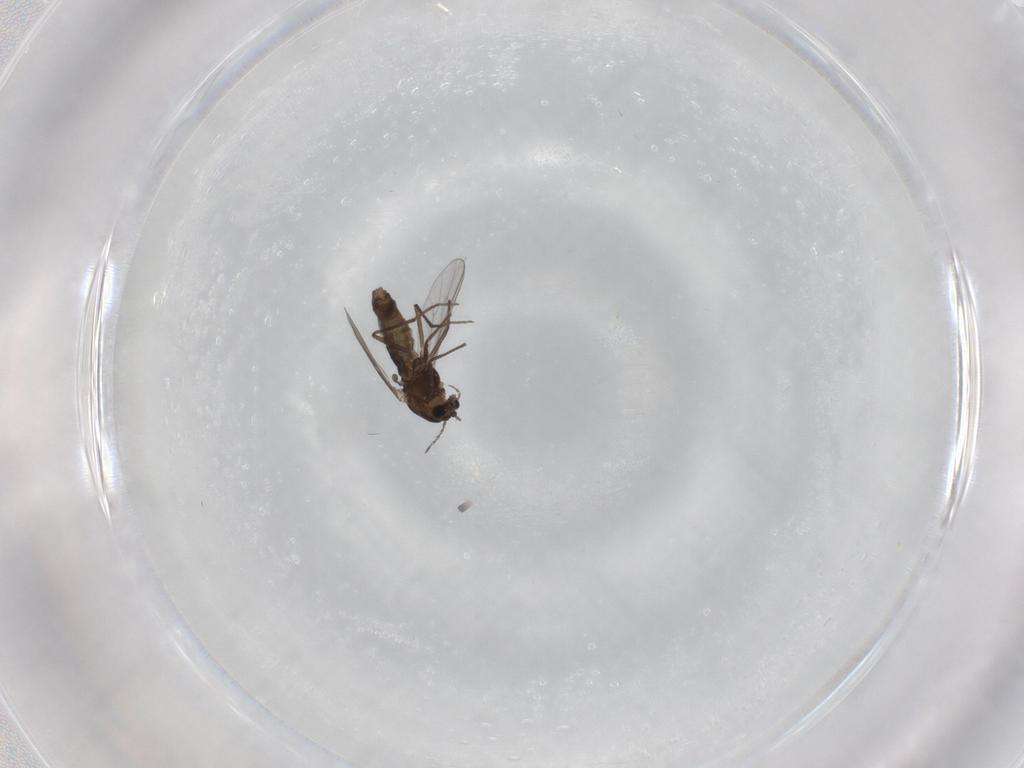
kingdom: Animalia
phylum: Arthropoda
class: Insecta
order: Diptera
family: Chironomidae
